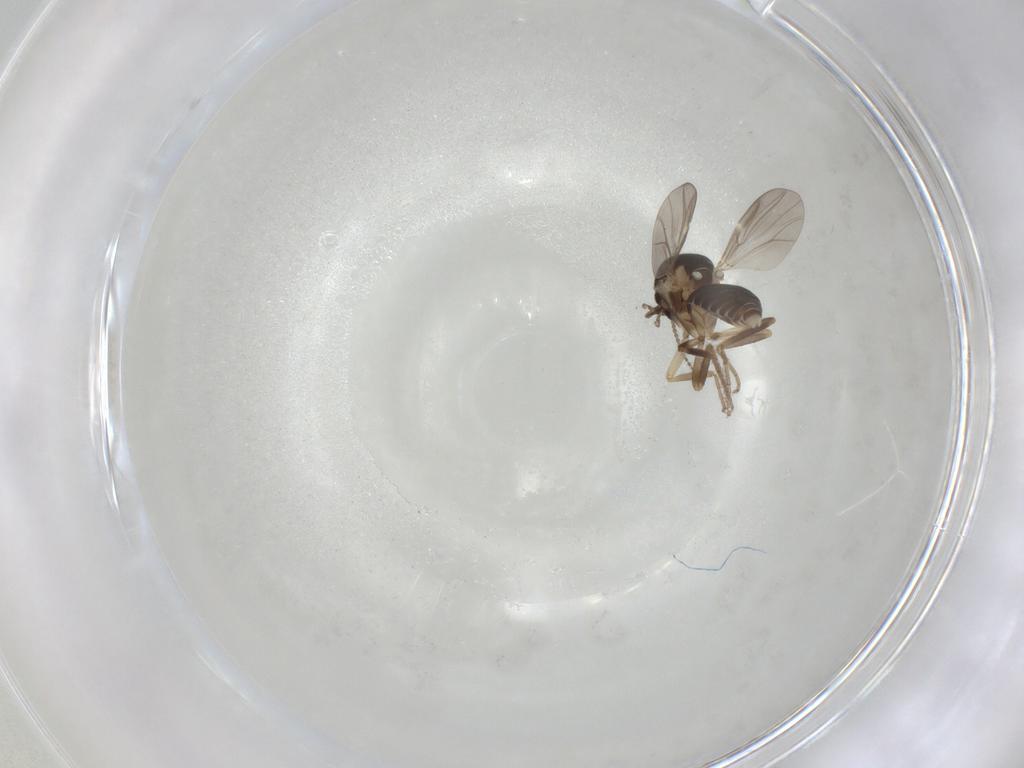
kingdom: Animalia
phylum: Arthropoda
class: Insecta
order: Diptera
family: Ceratopogonidae
